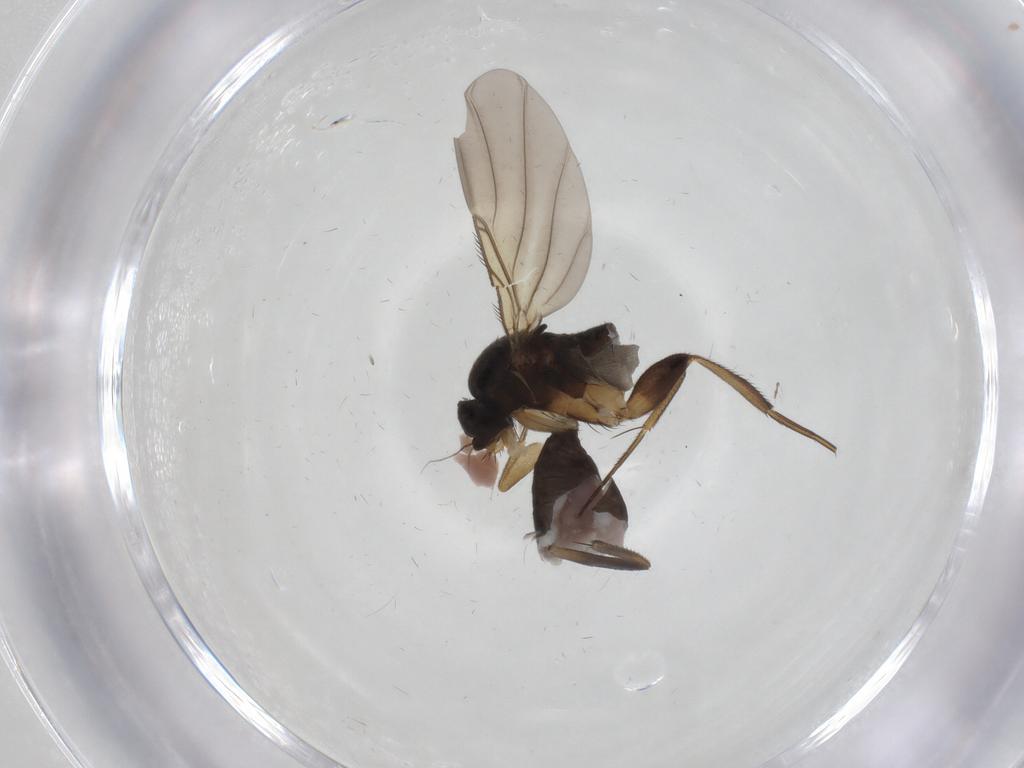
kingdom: Animalia
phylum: Arthropoda
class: Insecta
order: Diptera
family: Phoridae
